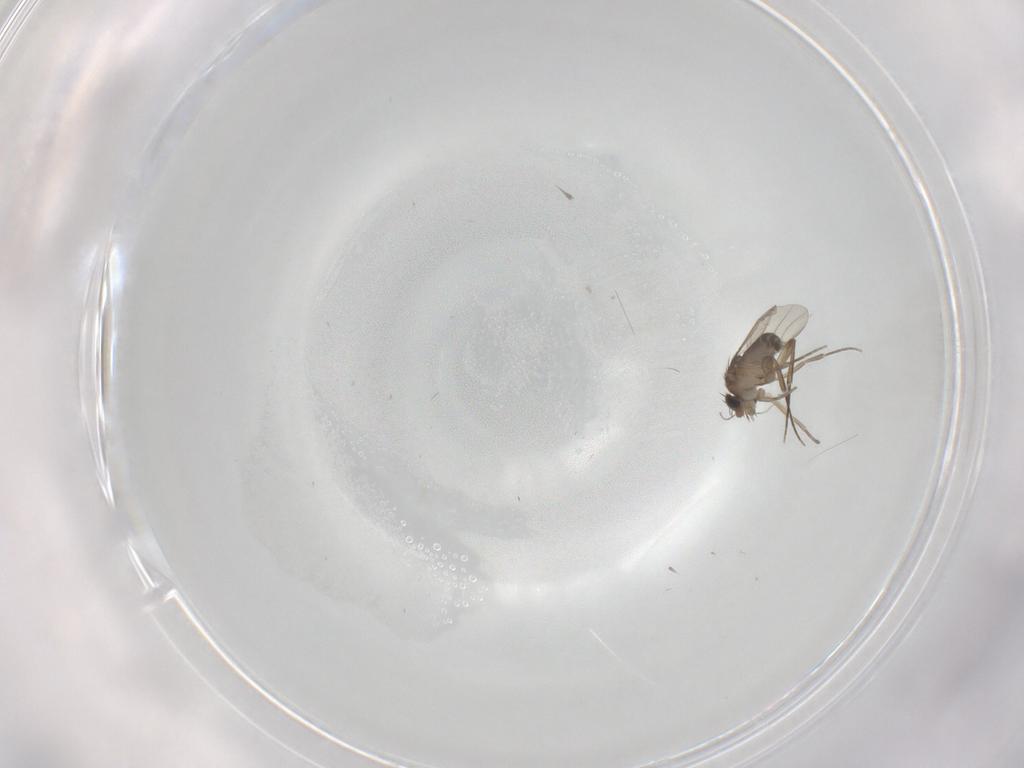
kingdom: Animalia
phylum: Arthropoda
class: Insecta
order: Diptera
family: Phoridae
